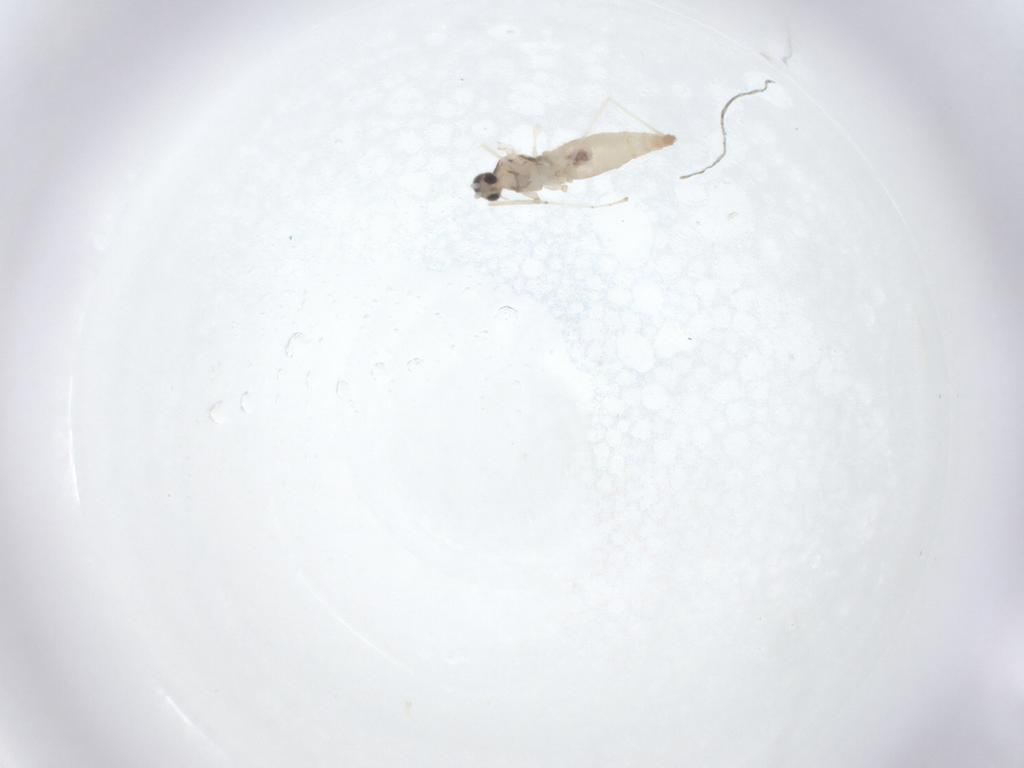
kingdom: Animalia
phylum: Arthropoda
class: Insecta
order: Diptera
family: Cecidomyiidae
